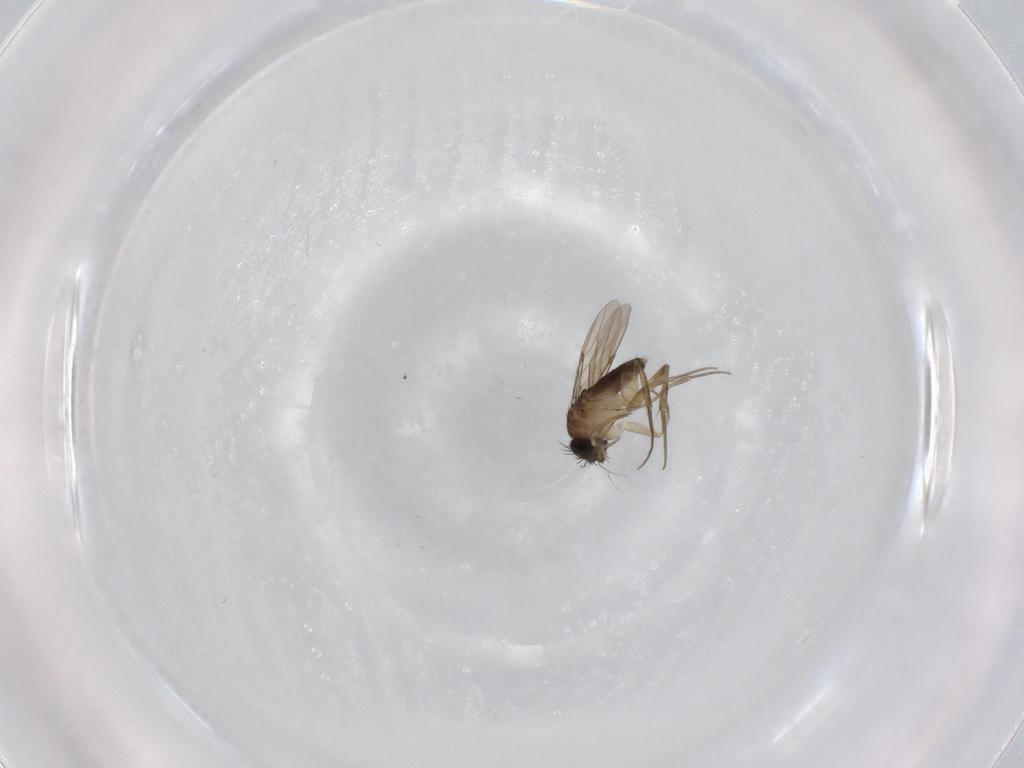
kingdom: Animalia
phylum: Arthropoda
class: Insecta
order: Diptera
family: Cecidomyiidae
